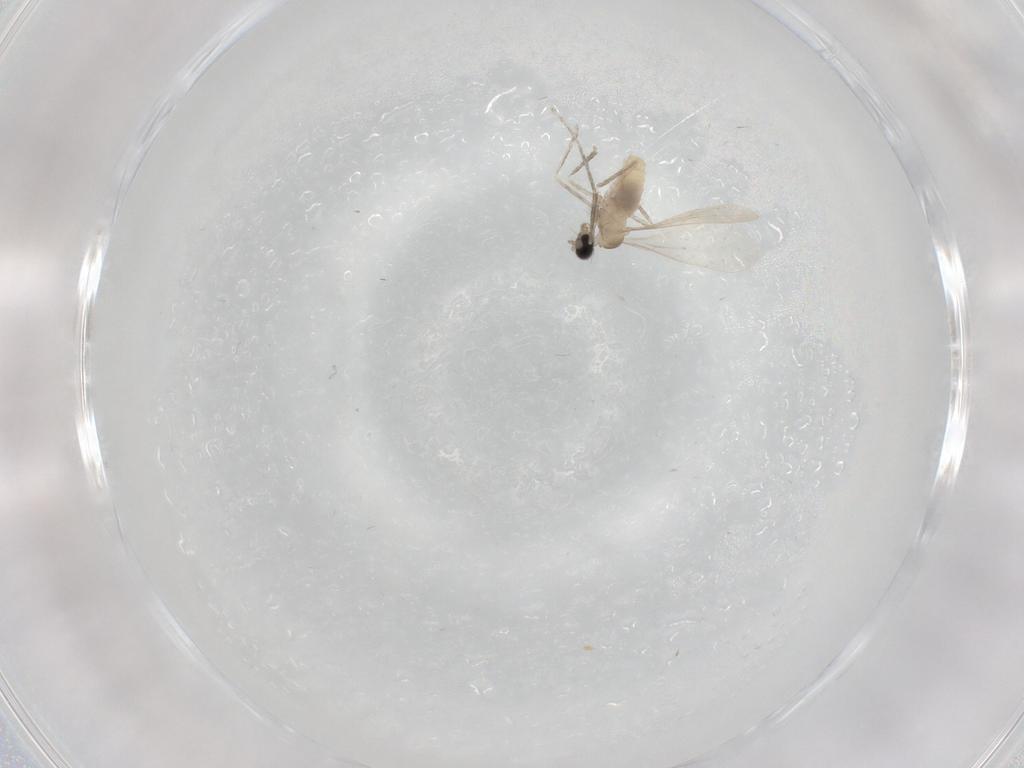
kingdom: Animalia
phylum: Arthropoda
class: Insecta
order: Diptera
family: Cecidomyiidae
